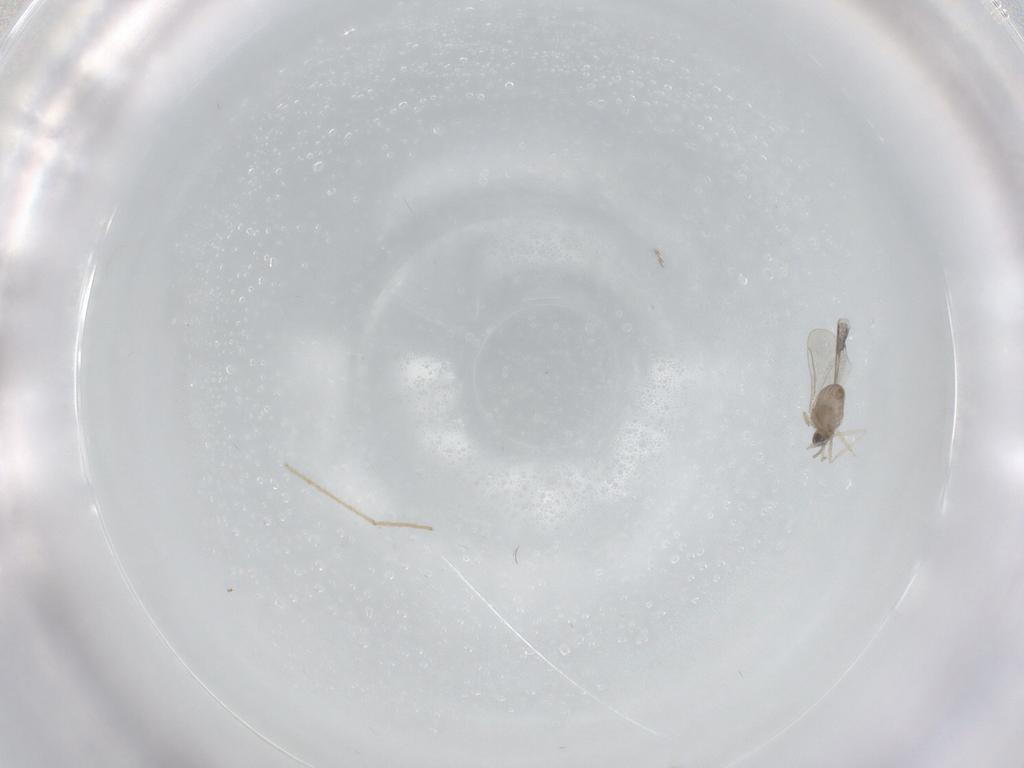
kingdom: Animalia
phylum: Arthropoda
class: Insecta
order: Diptera
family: Cecidomyiidae
